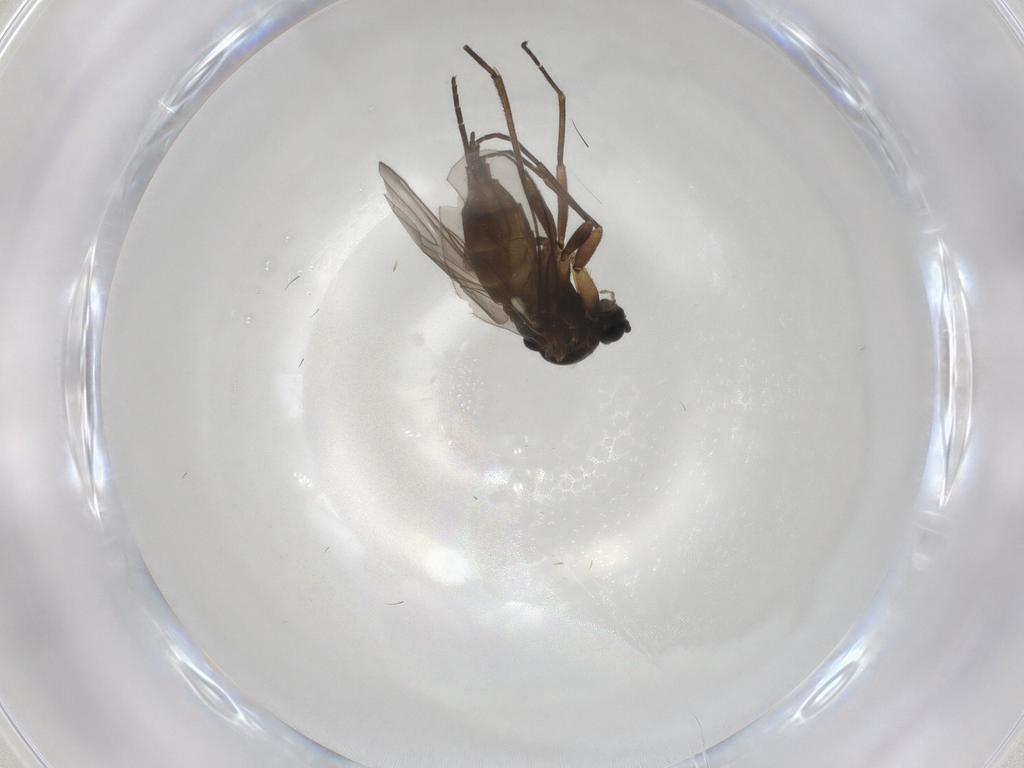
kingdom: Animalia
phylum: Arthropoda
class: Insecta
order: Diptera
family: Sciaridae
